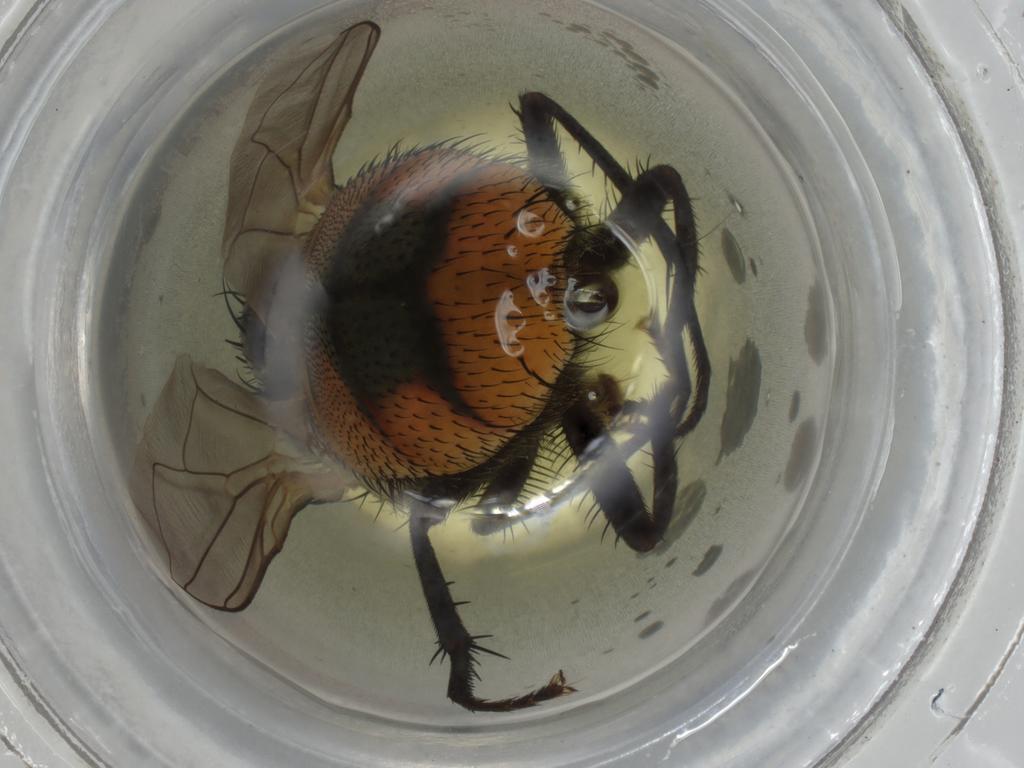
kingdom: Animalia
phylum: Arthropoda
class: Insecta
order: Diptera
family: Muscidae
